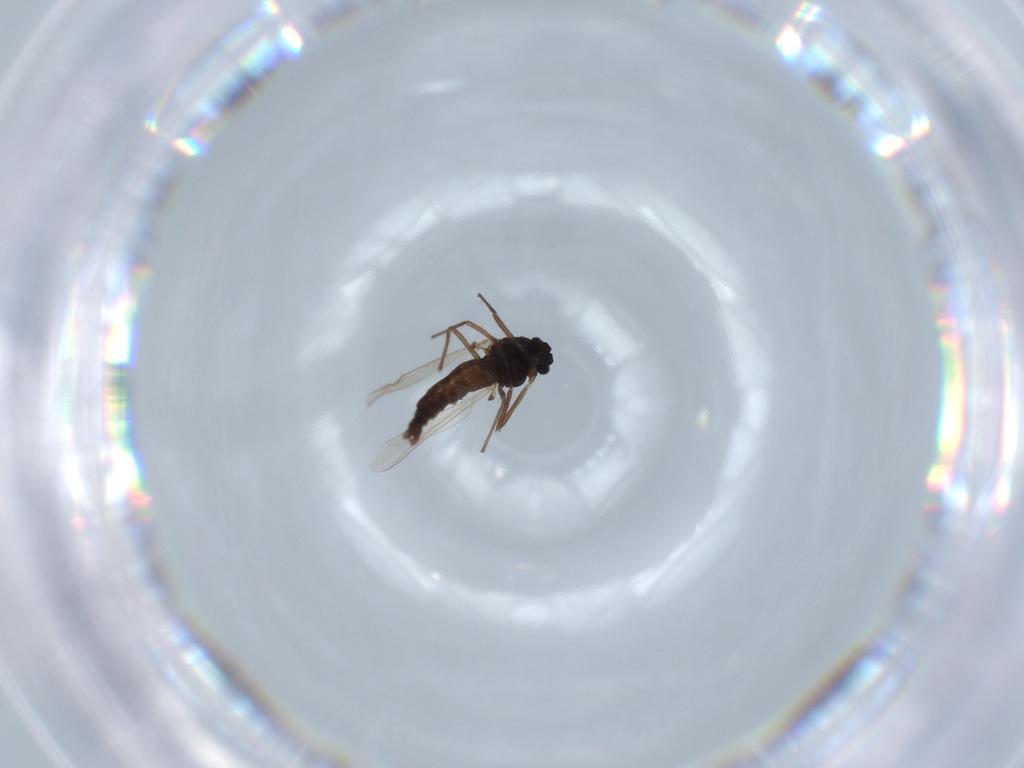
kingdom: Animalia
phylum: Arthropoda
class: Insecta
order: Diptera
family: Chironomidae
